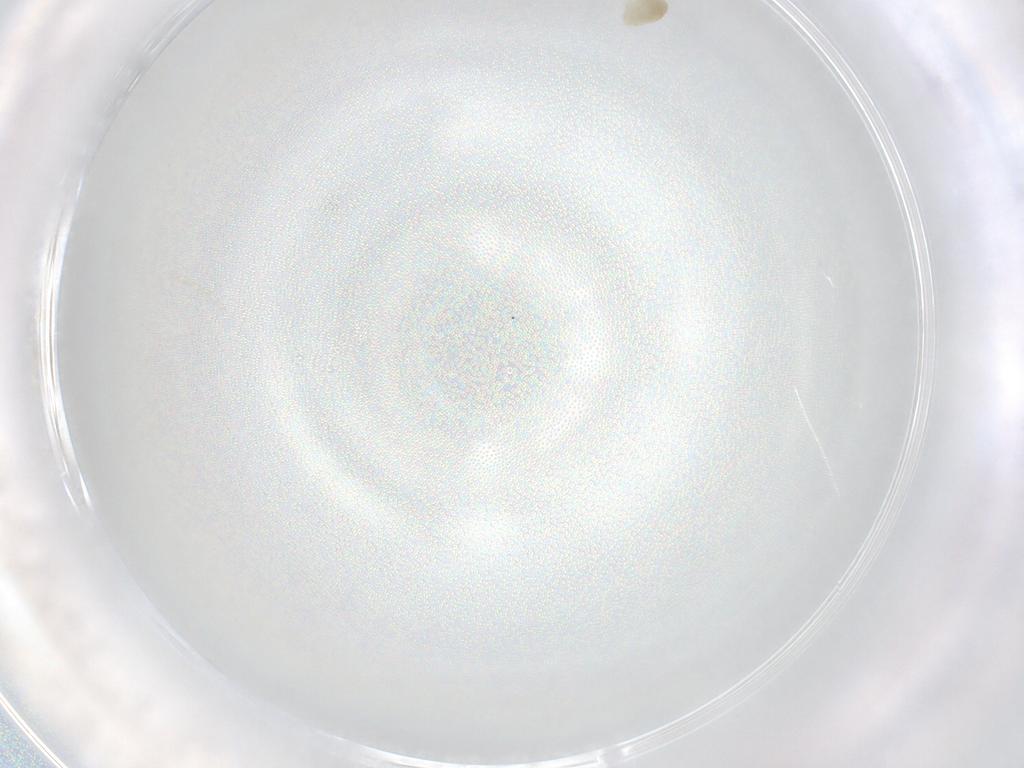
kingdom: Animalia
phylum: Arthropoda
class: Arachnida
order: Trombidiformes
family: Eupodidae
